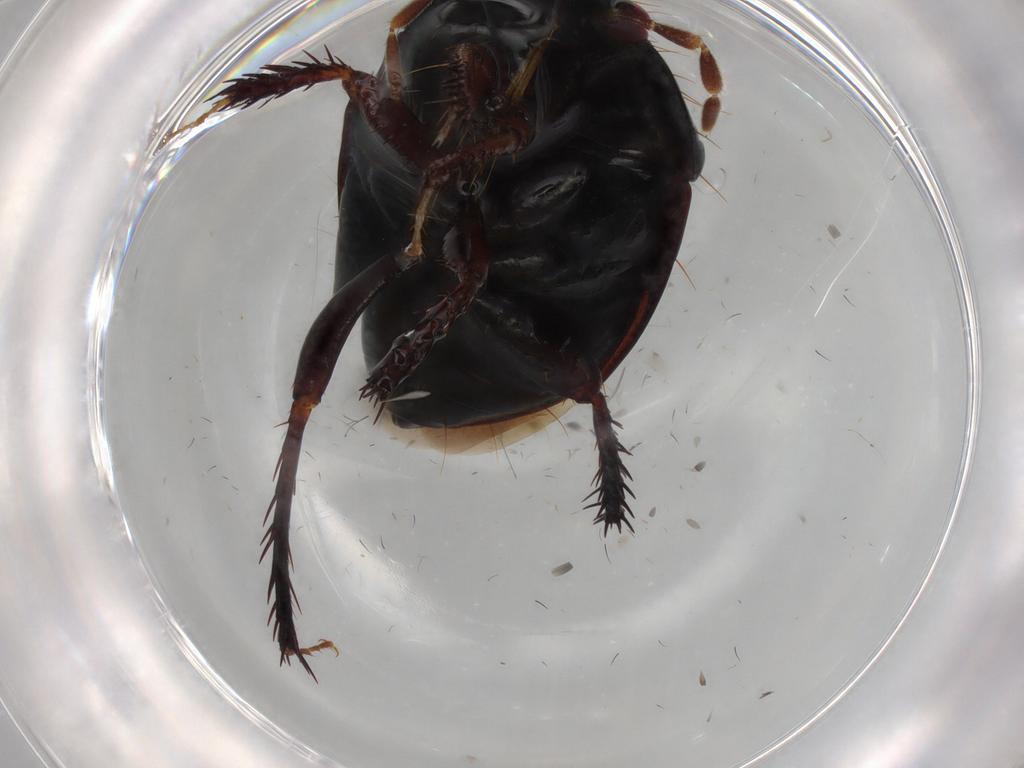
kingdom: Animalia
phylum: Arthropoda
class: Insecta
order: Hemiptera
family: Cydnidae
